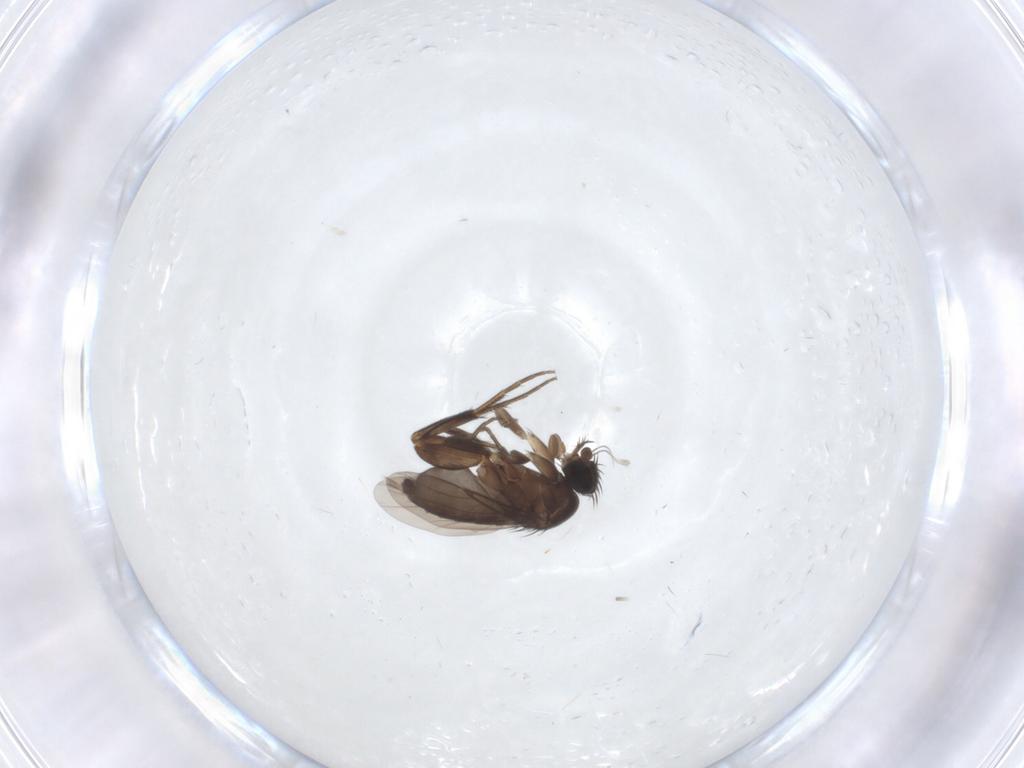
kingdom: Animalia
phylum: Arthropoda
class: Insecta
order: Diptera
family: Phoridae
